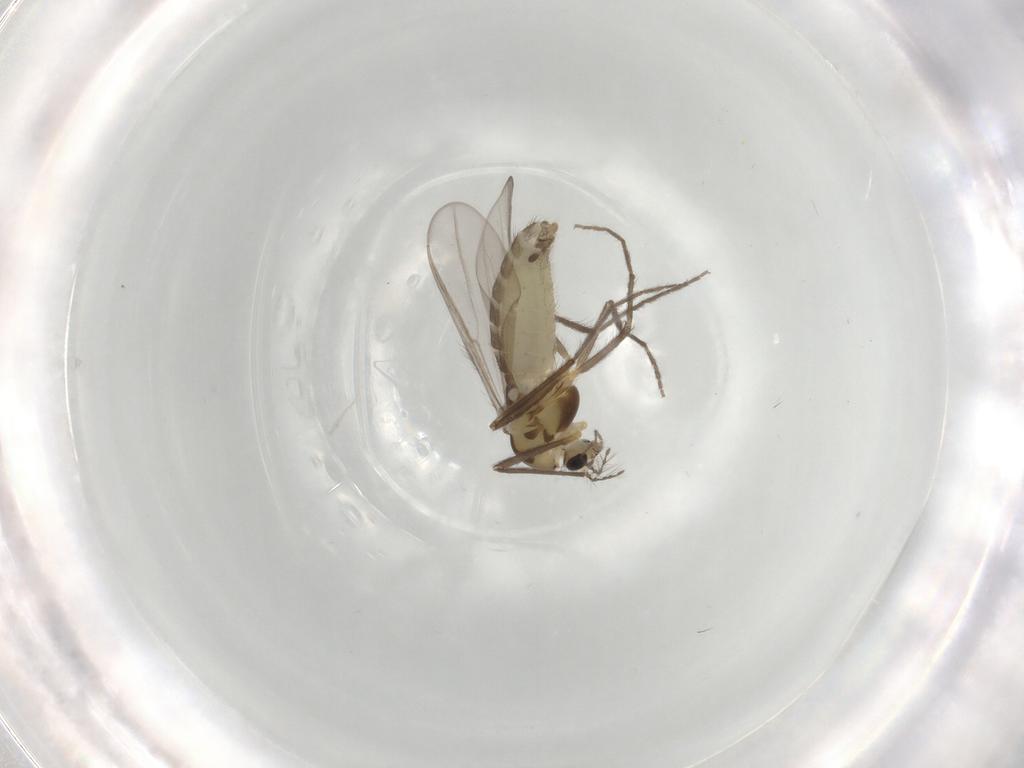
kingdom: Animalia
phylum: Arthropoda
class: Insecta
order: Diptera
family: Chironomidae
